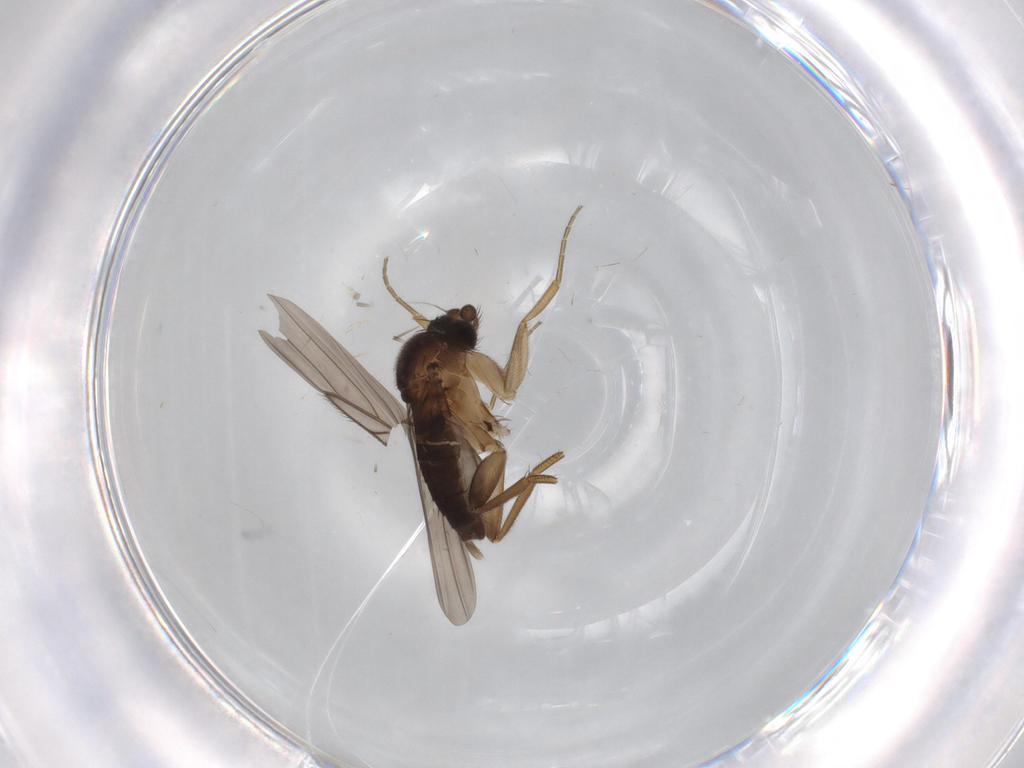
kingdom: Animalia
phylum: Arthropoda
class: Insecta
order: Diptera
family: Phoridae
